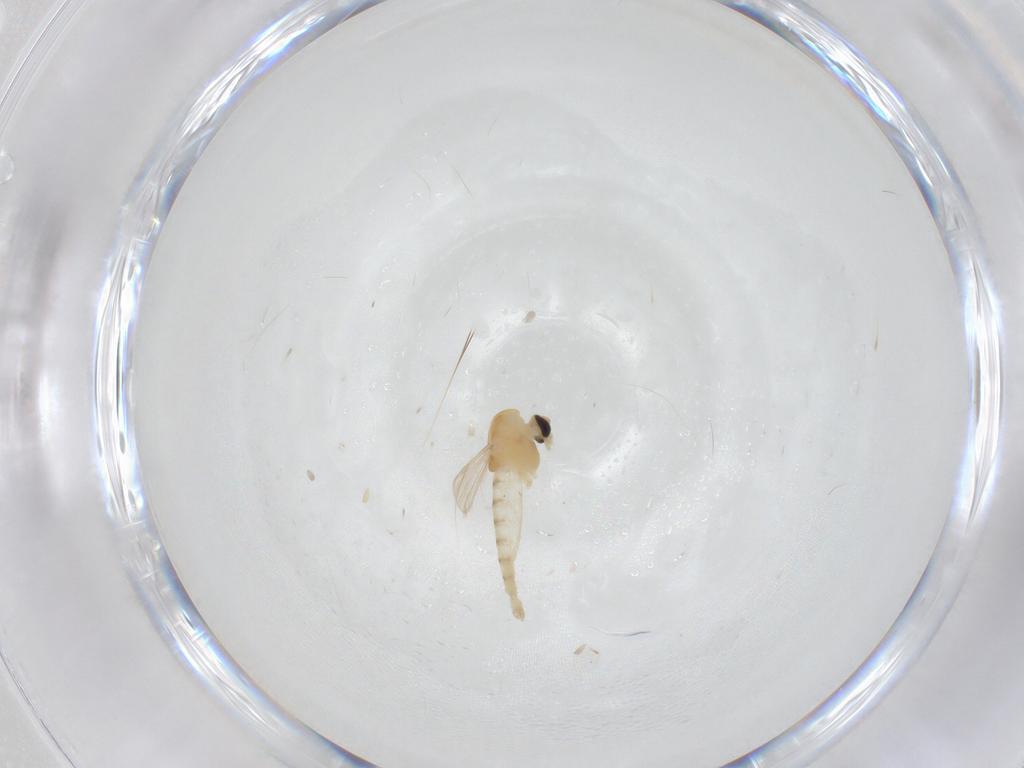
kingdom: Animalia
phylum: Arthropoda
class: Insecta
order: Diptera
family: Chironomidae
